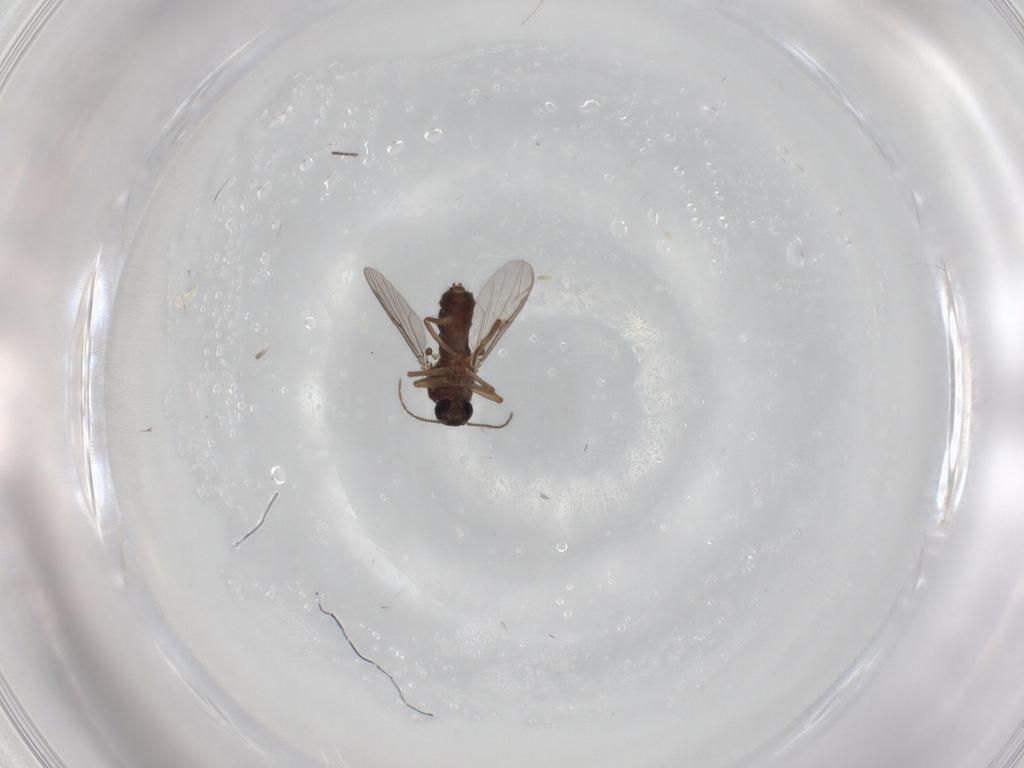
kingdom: Animalia
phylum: Arthropoda
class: Insecta
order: Diptera
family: Ceratopogonidae
